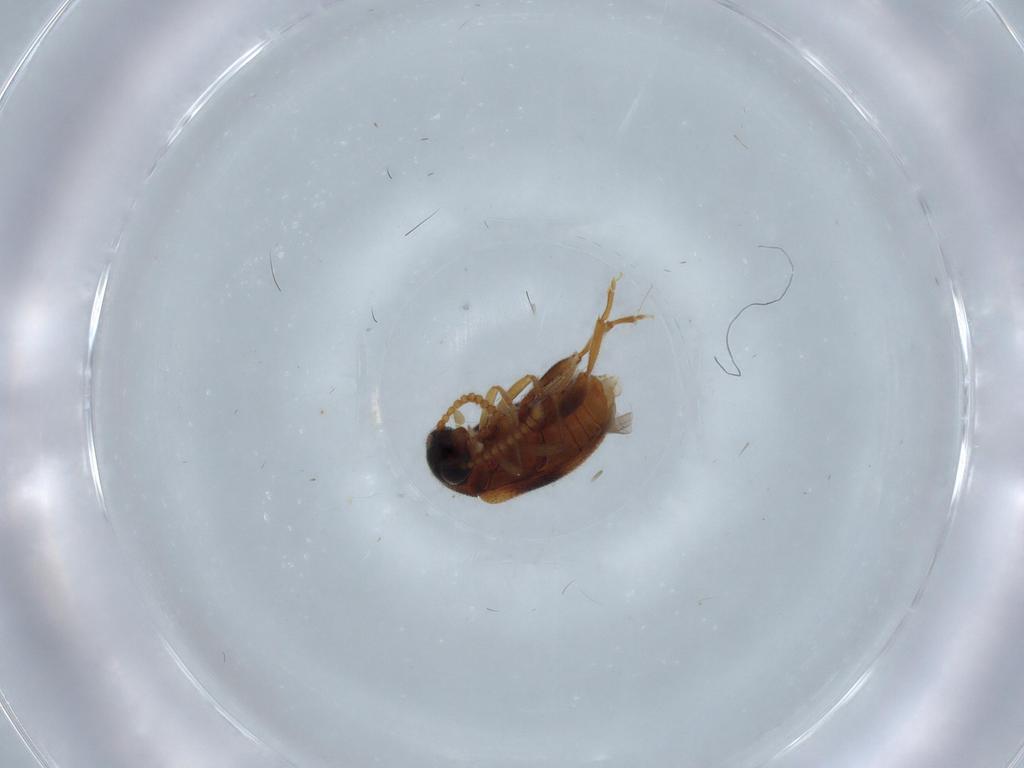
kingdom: Animalia
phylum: Arthropoda
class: Insecta
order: Coleoptera
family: Aderidae
